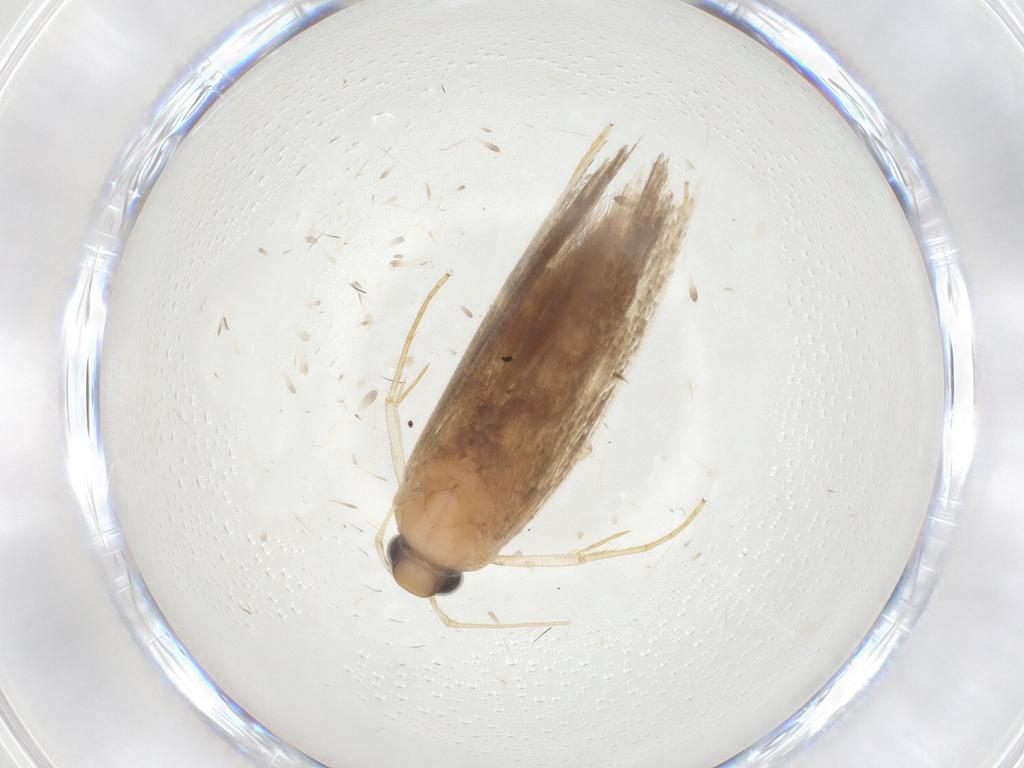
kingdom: Animalia
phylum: Arthropoda
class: Insecta
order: Lepidoptera
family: Gelechiidae
